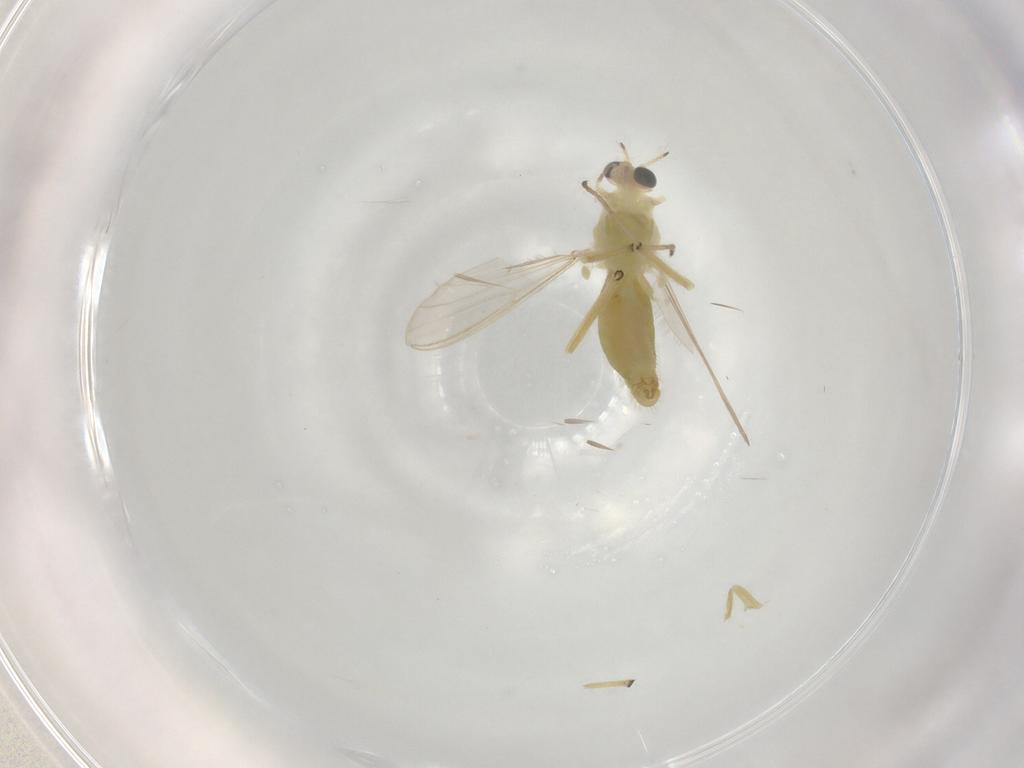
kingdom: Animalia
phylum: Arthropoda
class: Insecta
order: Diptera
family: Chironomidae
